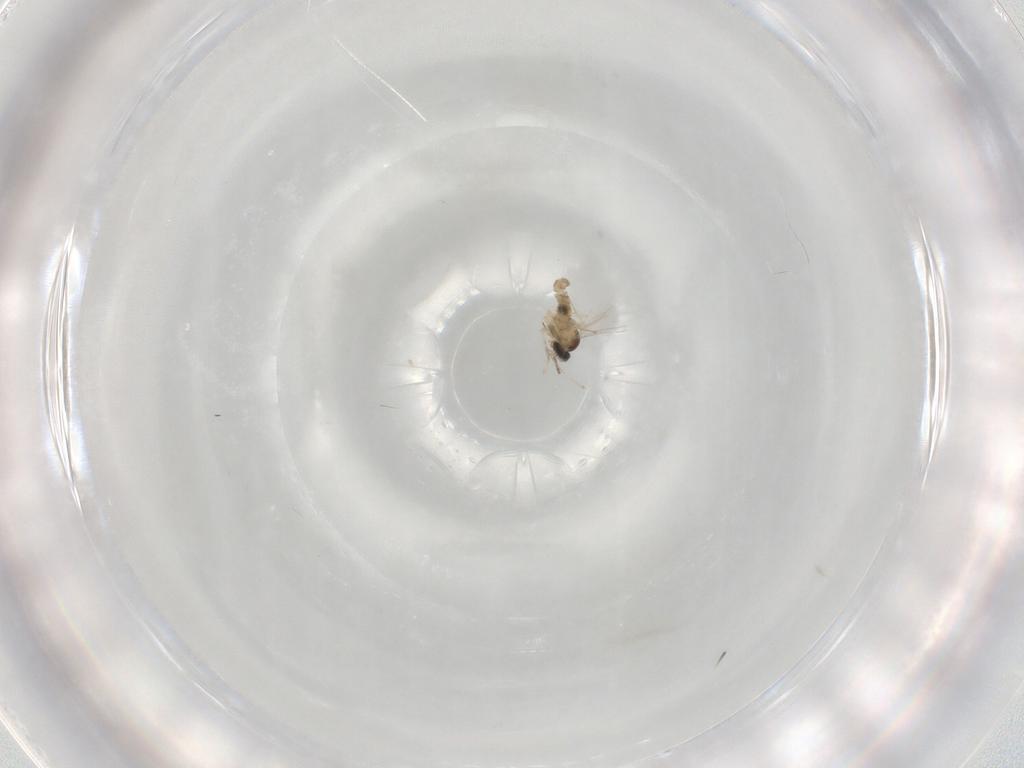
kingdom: Animalia
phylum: Arthropoda
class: Insecta
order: Diptera
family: Cecidomyiidae
